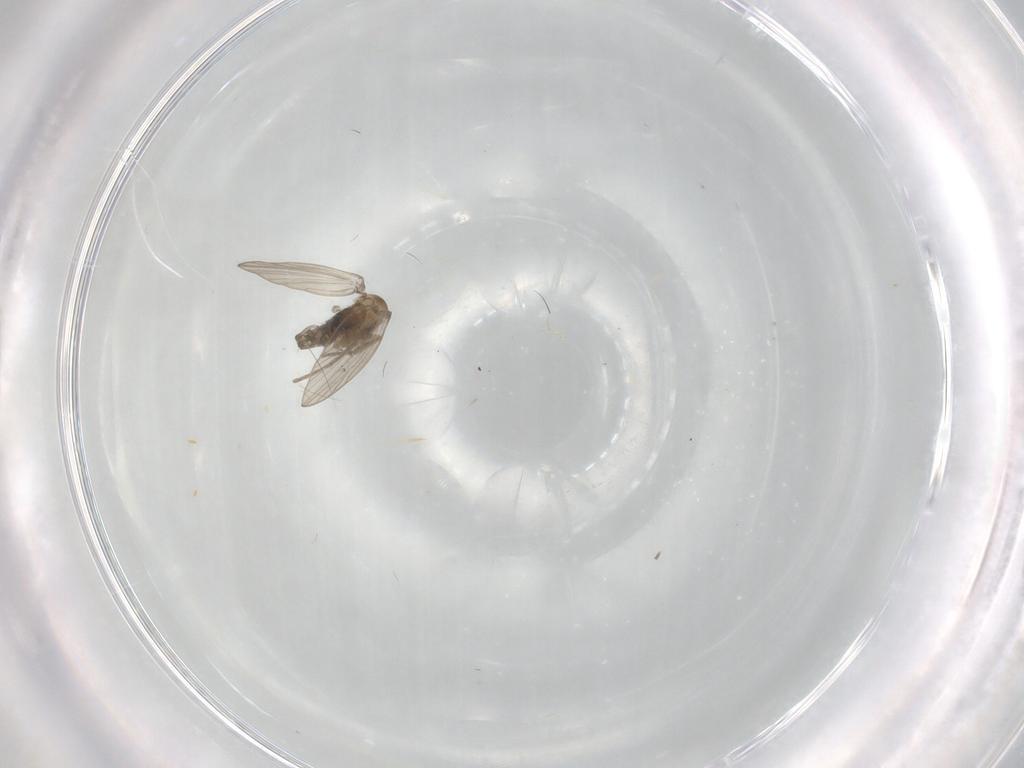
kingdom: Animalia
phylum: Arthropoda
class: Insecta
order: Diptera
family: Psychodidae
